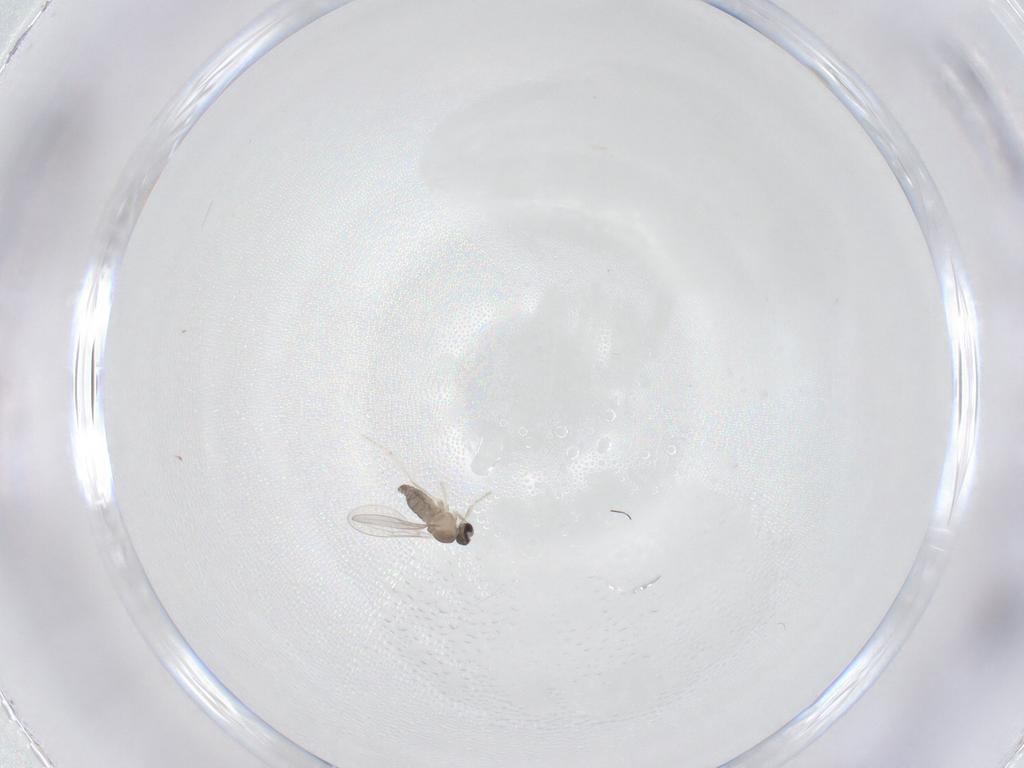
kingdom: Animalia
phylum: Arthropoda
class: Insecta
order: Diptera
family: Cecidomyiidae
